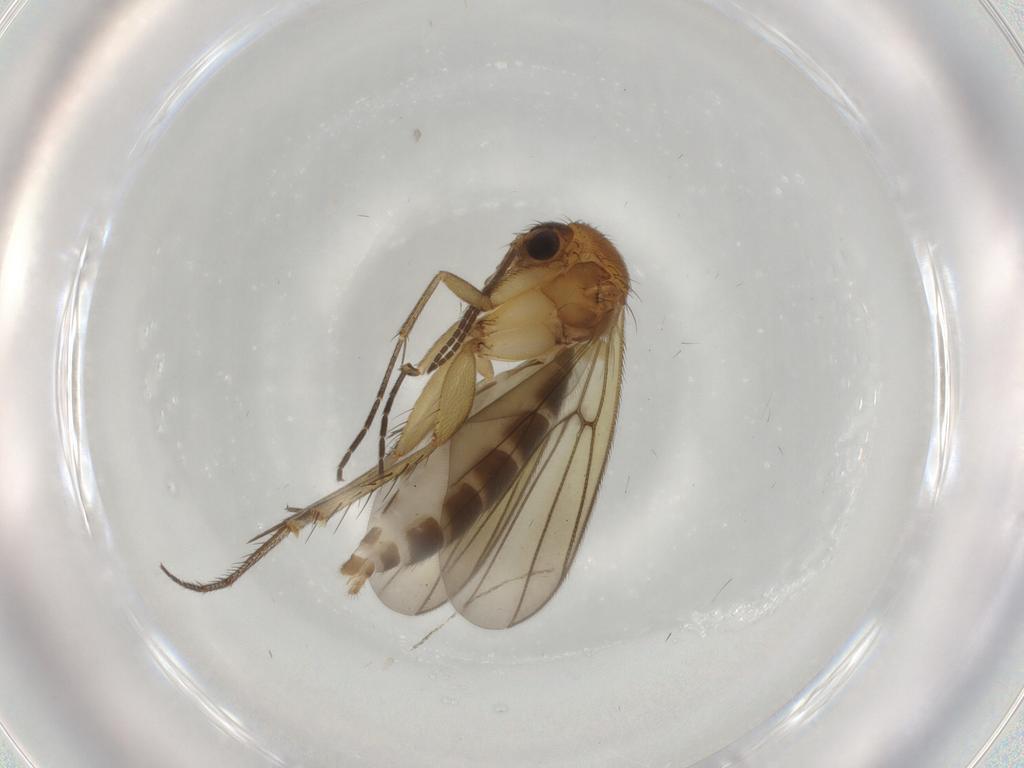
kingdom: Animalia
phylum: Arthropoda
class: Insecta
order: Diptera
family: Mycetophilidae
